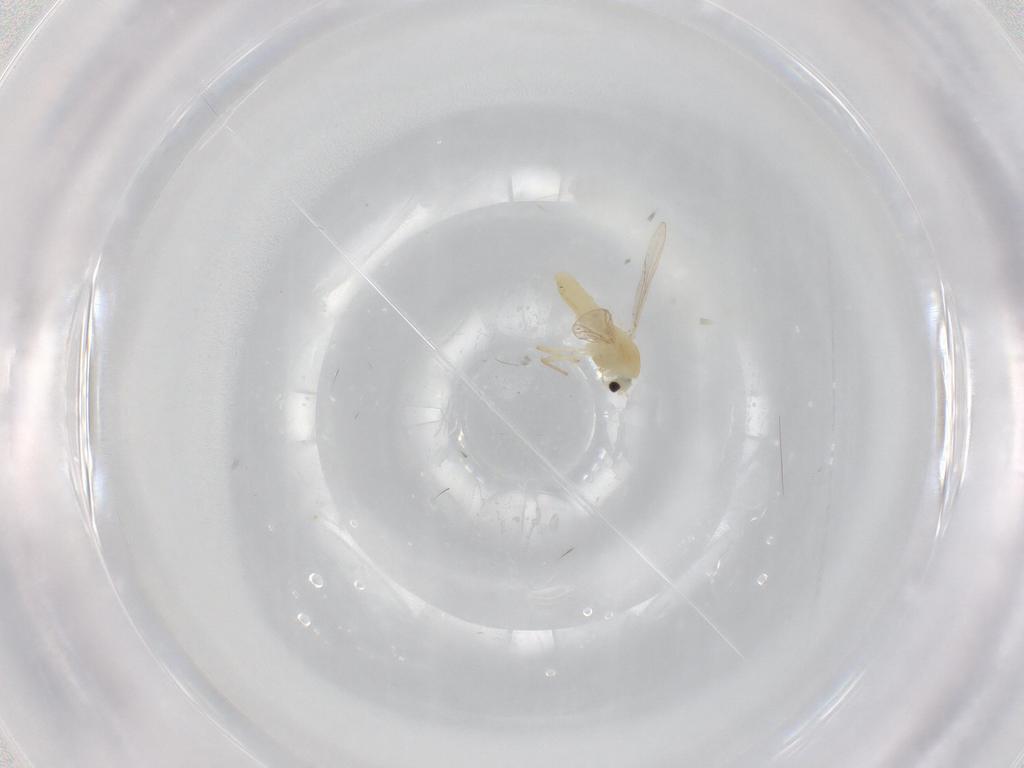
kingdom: Animalia
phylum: Arthropoda
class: Insecta
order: Diptera
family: Chironomidae
